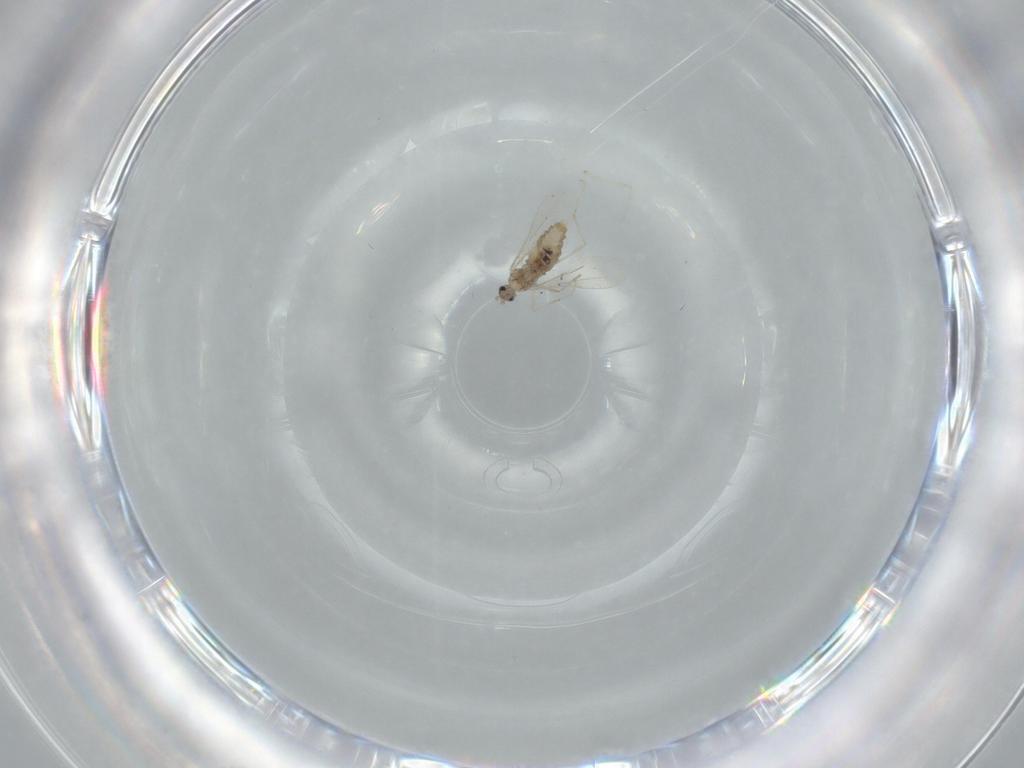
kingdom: Animalia
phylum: Arthropoda
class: Insecta
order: Diptera
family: Cecidomyiidae
